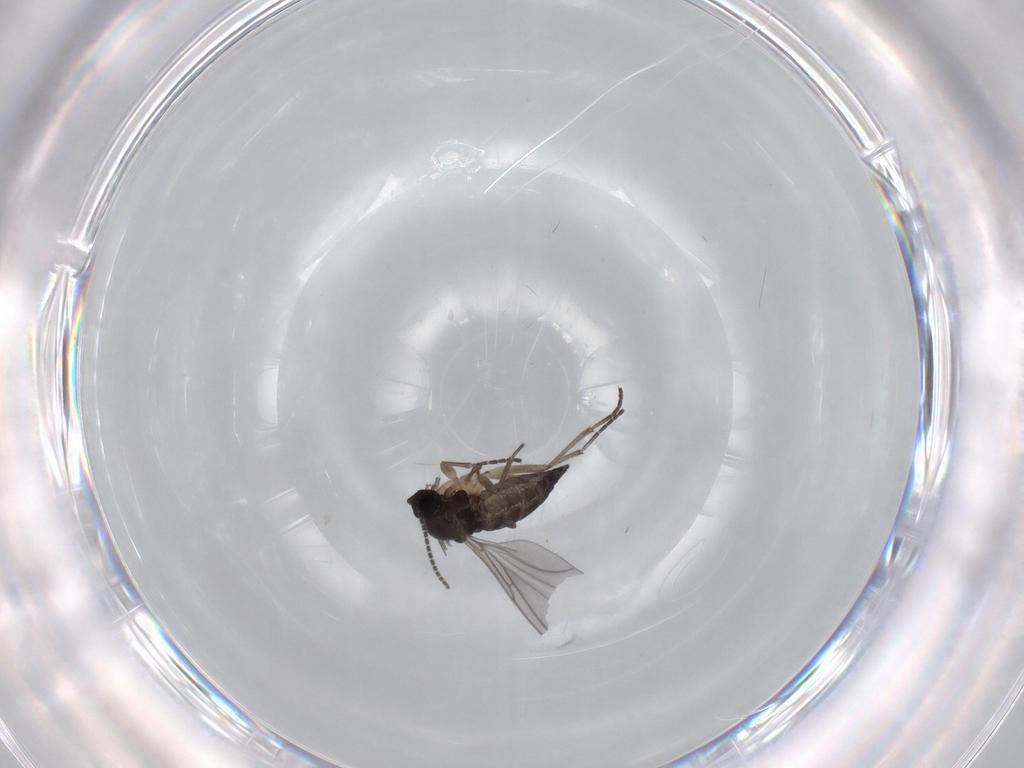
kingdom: Animalia
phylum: Arthropoda
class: Insecta
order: Diptera
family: Sciaridae
